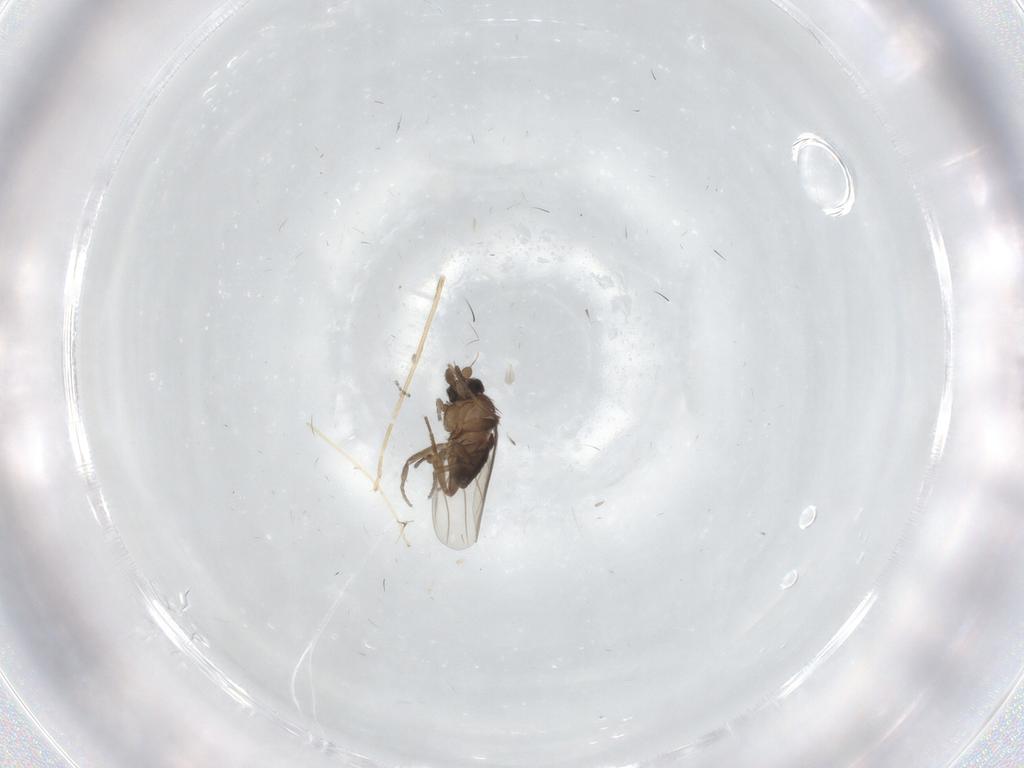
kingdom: Animalia
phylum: Arthropoda
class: Insecta
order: Diptera
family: Chironomidae
